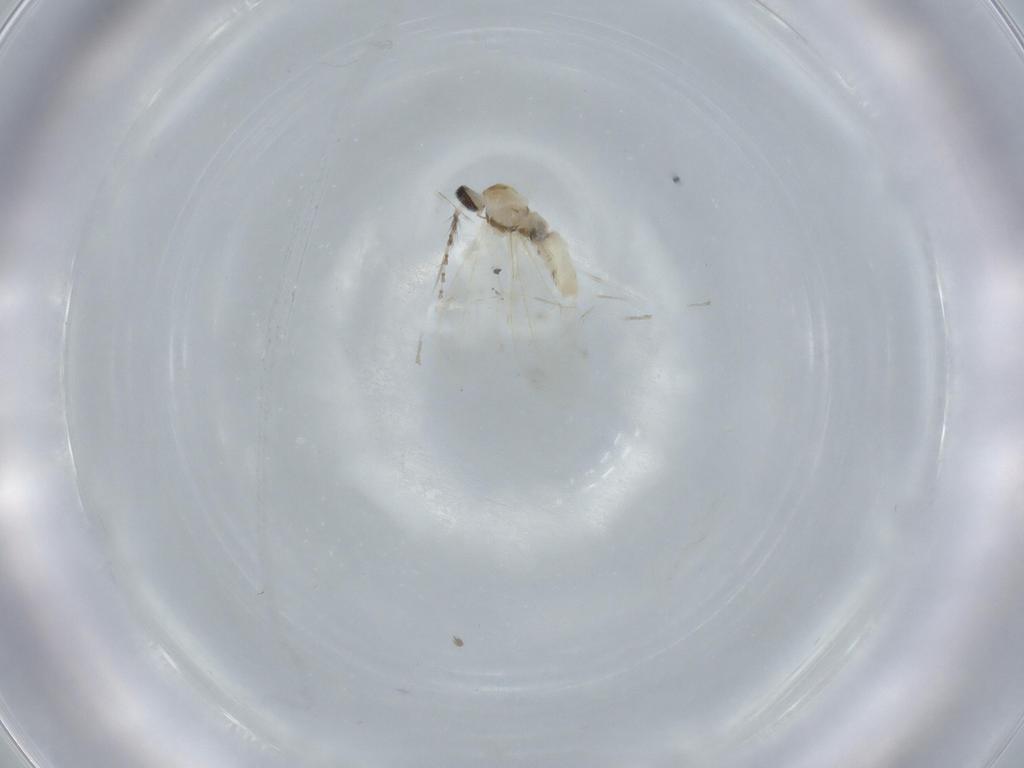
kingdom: Animalia
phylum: Arthropoda
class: Insecta
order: Diptera
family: Cecidomyiidae
